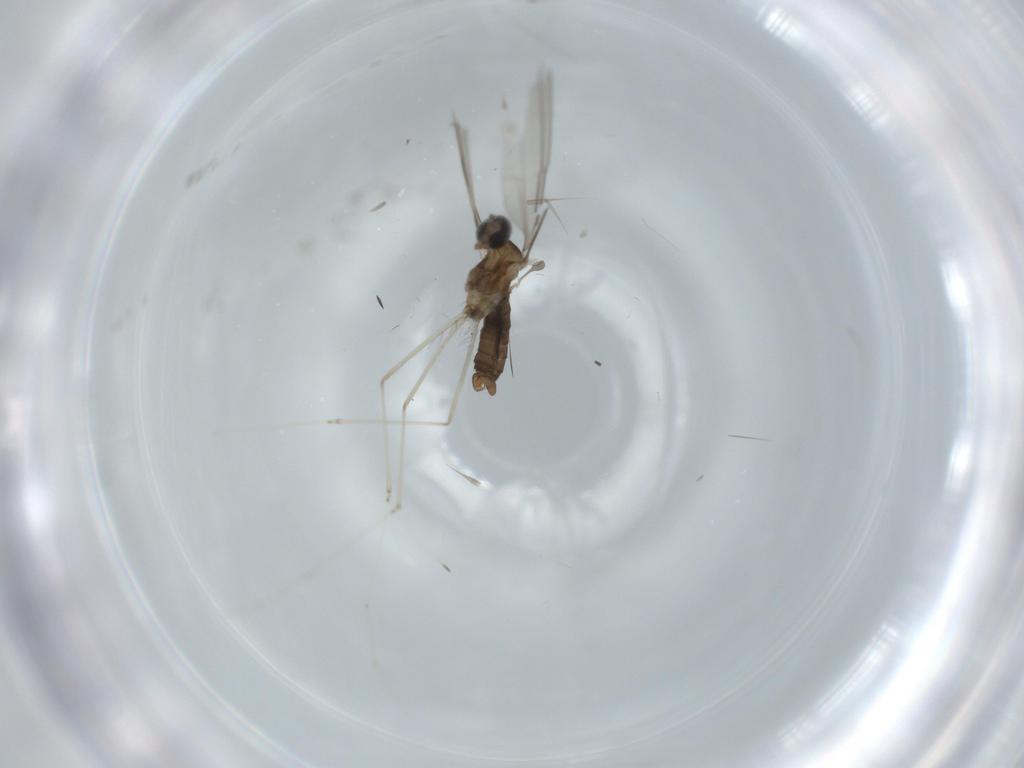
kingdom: Animalia
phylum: Arthropoda
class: Insecta
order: Diptera
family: Cecidomyiidae
